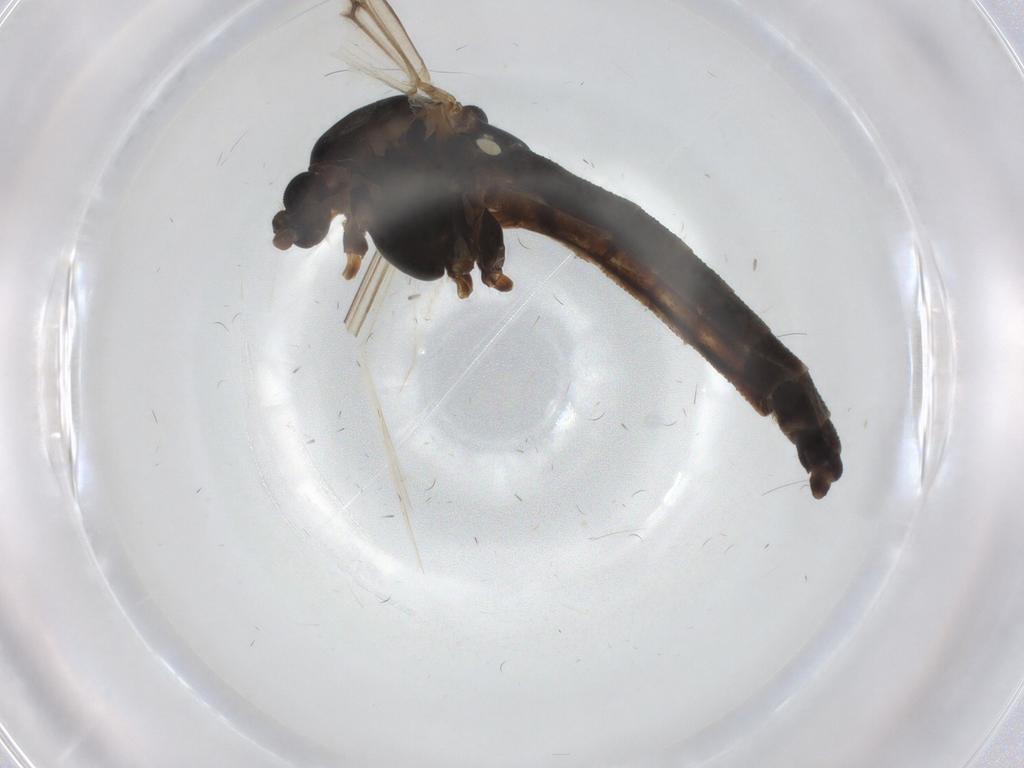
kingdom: Animalia
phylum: Arthropoda
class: Insecta
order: Diptera
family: Chironomidae
